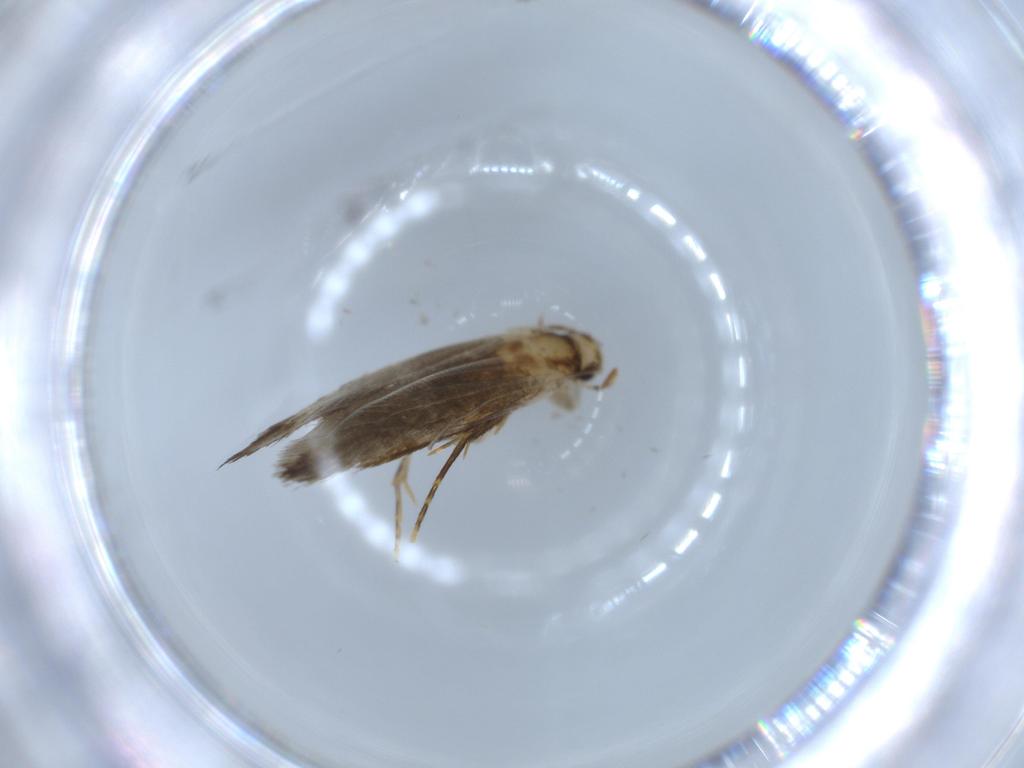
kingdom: Animalia
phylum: Arthropoda
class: Insecta
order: Lepidoptera
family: Tineidae
